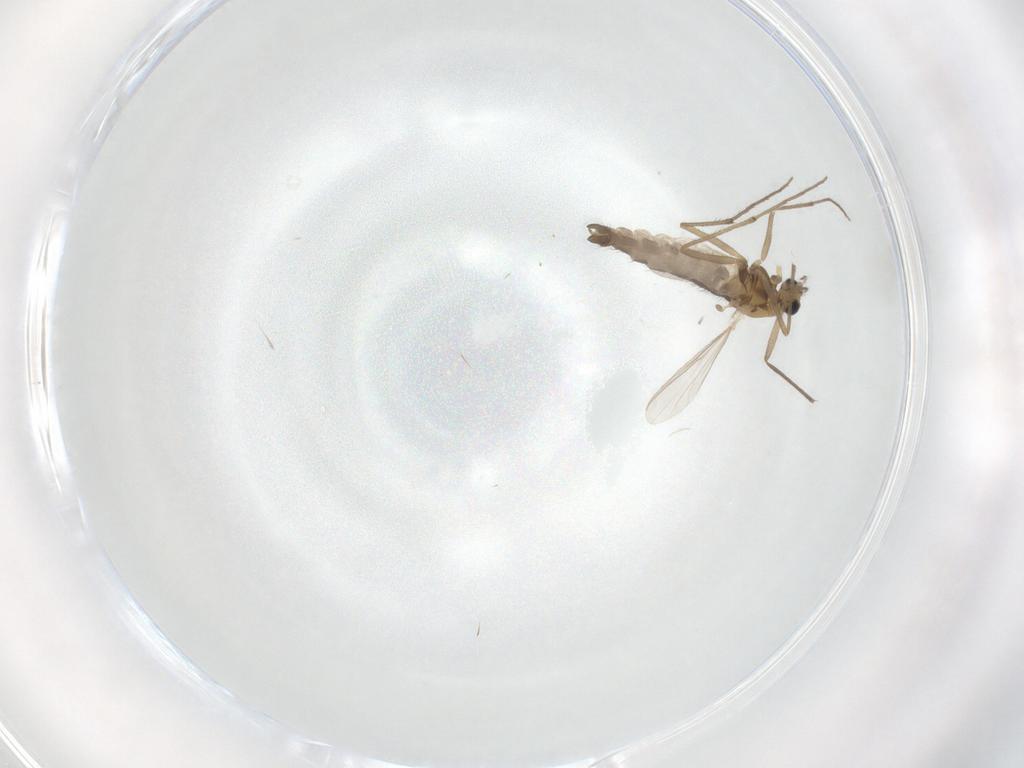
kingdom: Animalia
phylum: Arthropoda
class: Insecta
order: Diptera
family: Chironomidae
